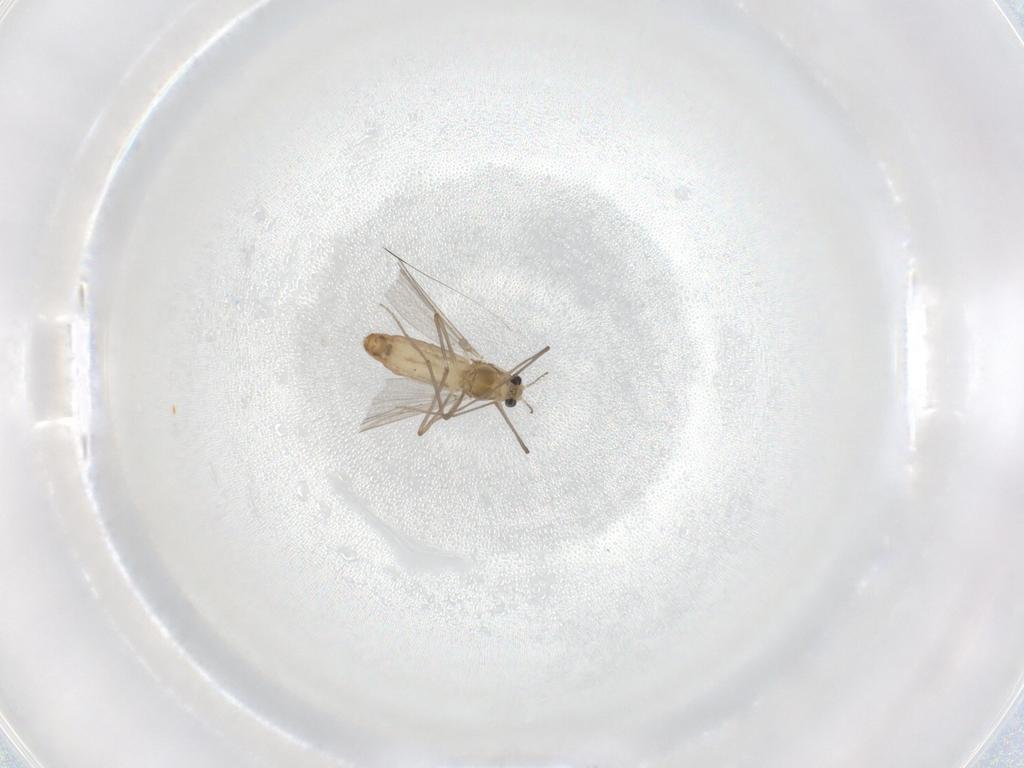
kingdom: Animalia
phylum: Arthropoda
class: Insecta
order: Diptera
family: Chironomidae
